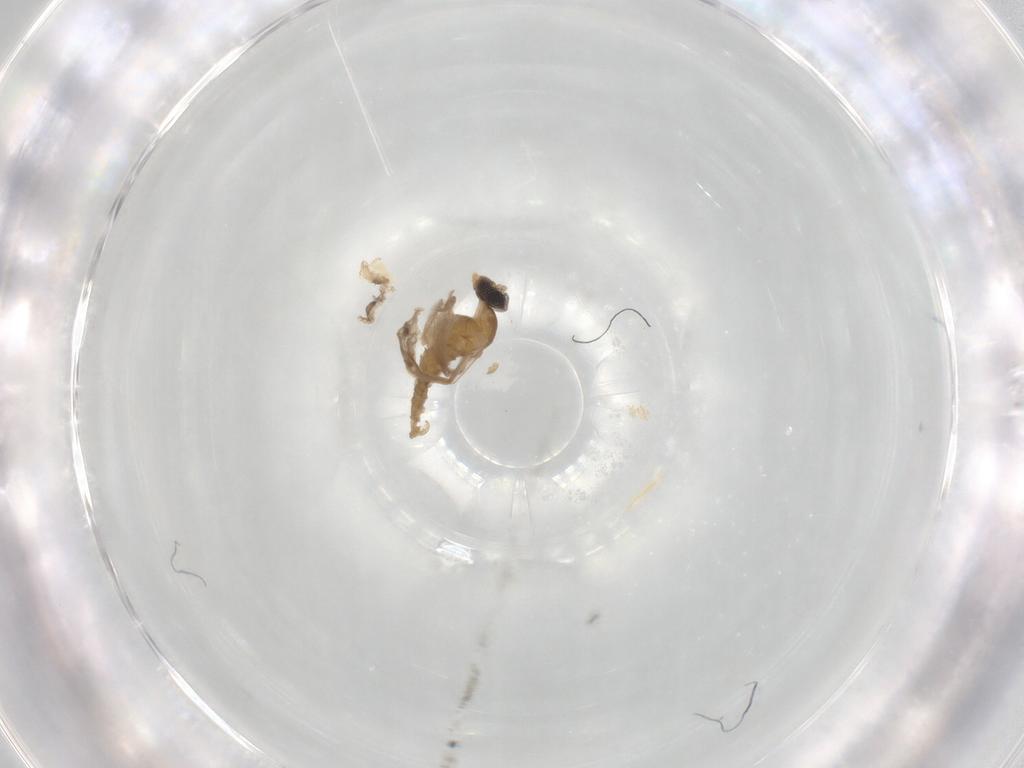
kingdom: Animalia
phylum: Arthropoda
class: Insecta
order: Diptera
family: Cecidomyiidae
